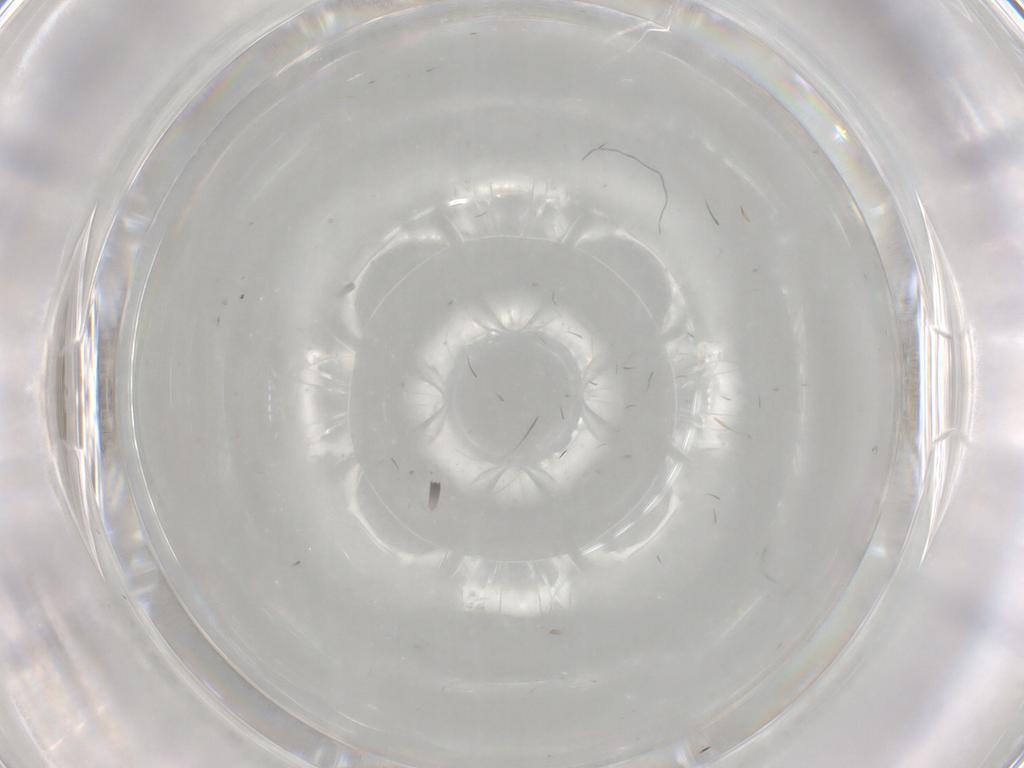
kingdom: Animalia
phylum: Arthropoda
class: Insecta
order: Diptera
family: Dolichopodidae
